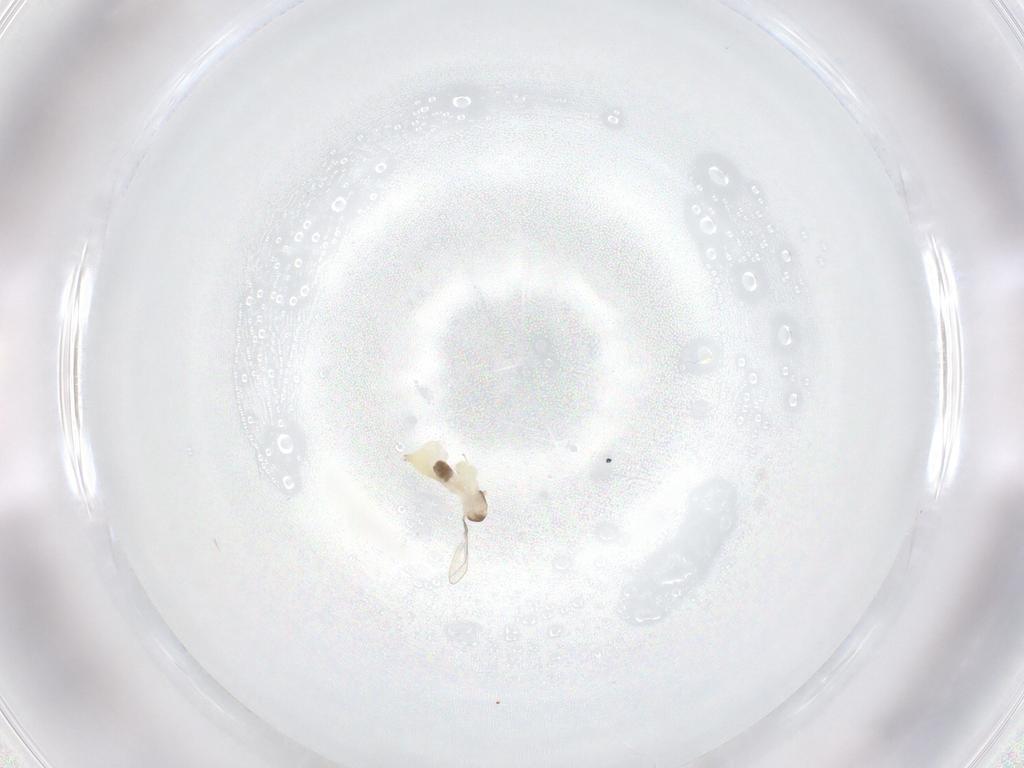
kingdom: Animalia
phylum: Arthropoda
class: Insecta
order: Diptera
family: Cecidomyiidae
